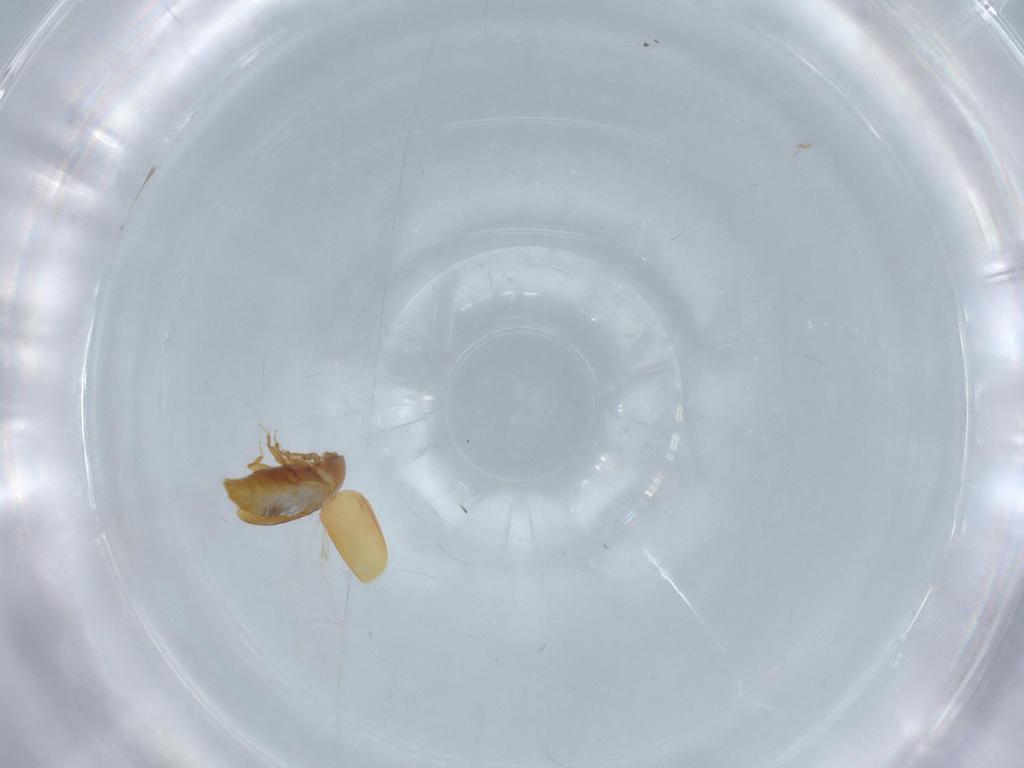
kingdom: Animalia
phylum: Arthropoda
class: Insecta
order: Coleoptera
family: Corylophidae
